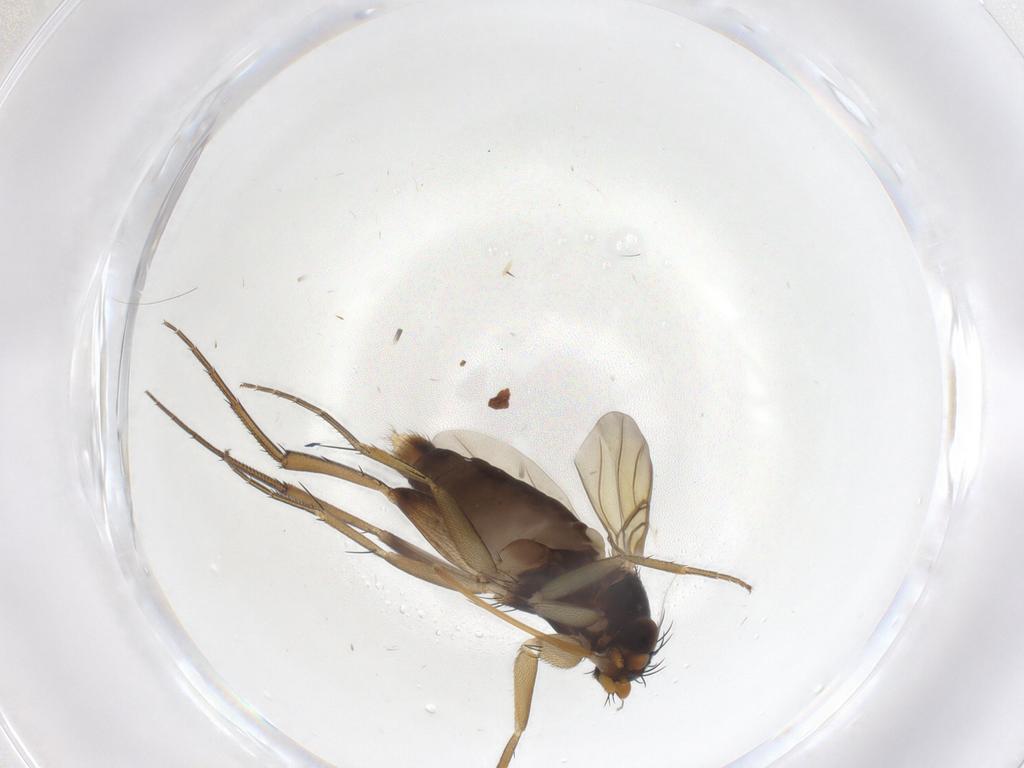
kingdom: Animalia
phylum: Arthropoda
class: Insecta
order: Diptera
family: Phoridae
